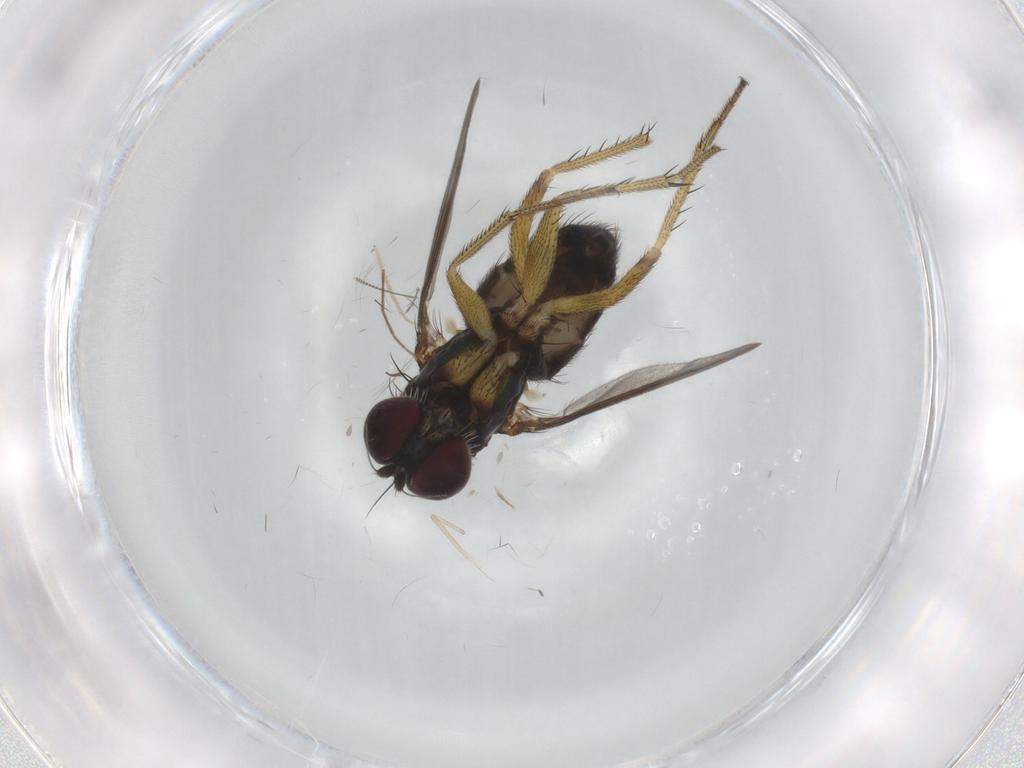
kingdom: Animalia
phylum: Arthropoda
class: Insecta
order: Diptera
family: Dolichopodidae
